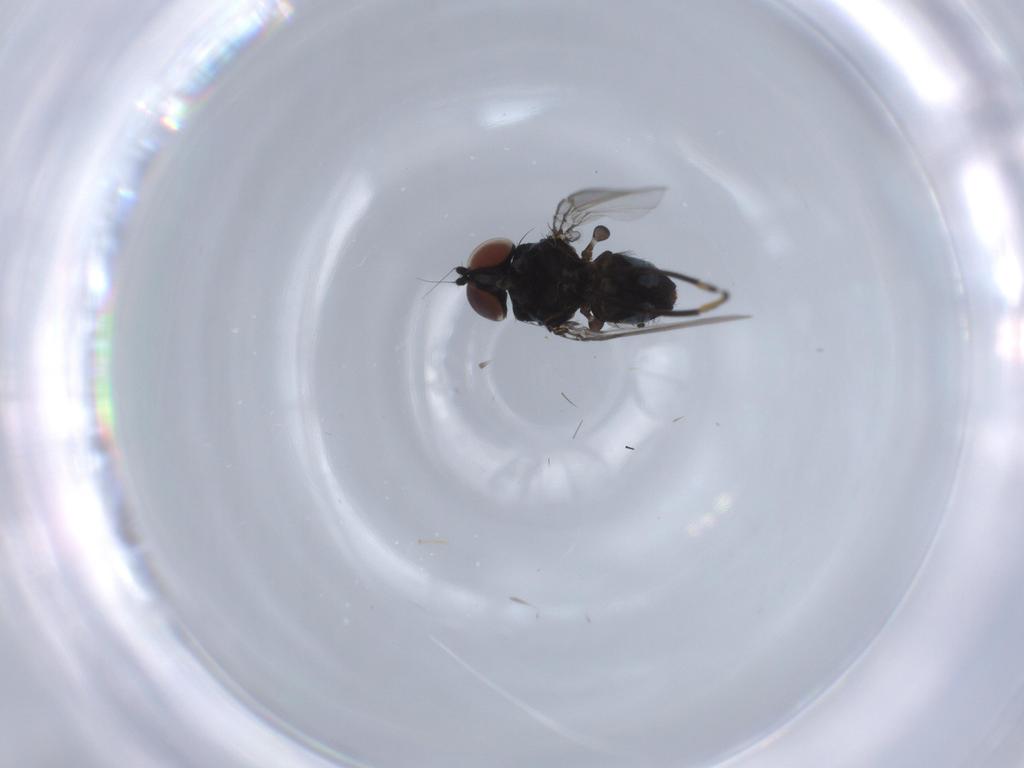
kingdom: Animalia
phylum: Arthropoda
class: Insecta
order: Diptera
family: Cecidomyiidae
